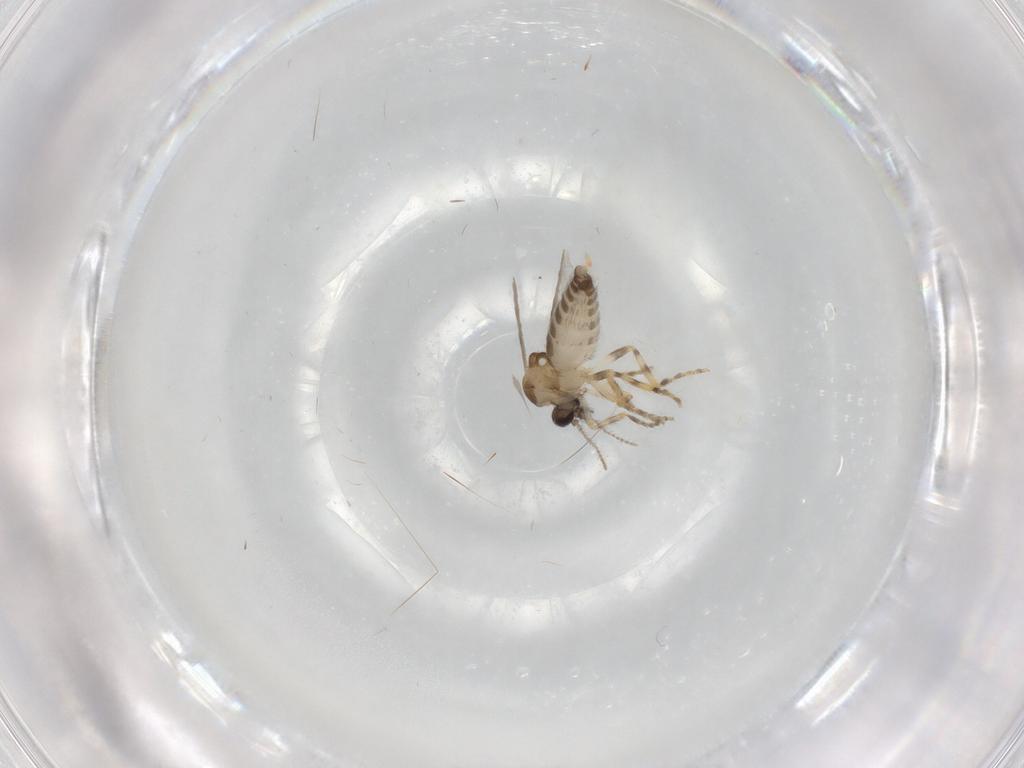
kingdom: Animalia
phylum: Arthropoda
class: Insecta
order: Diptera
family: Ceratopogonidae
